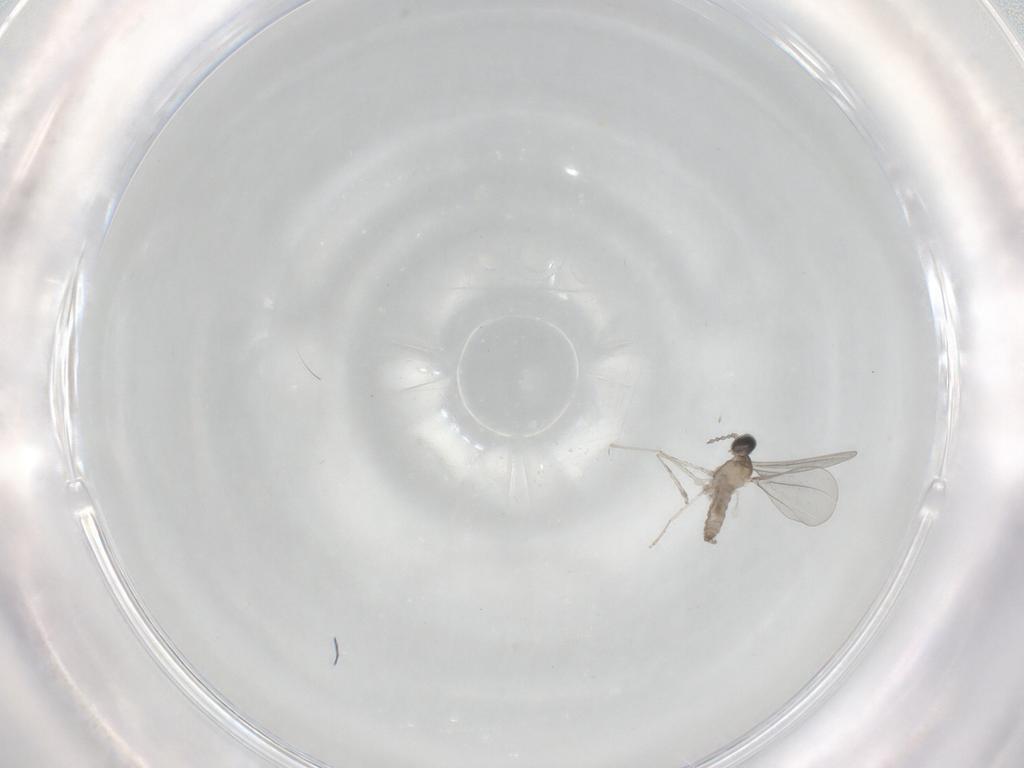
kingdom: Animalia
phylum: Arthropoda
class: Insecta
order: Diptera
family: Cecidomyiidae
